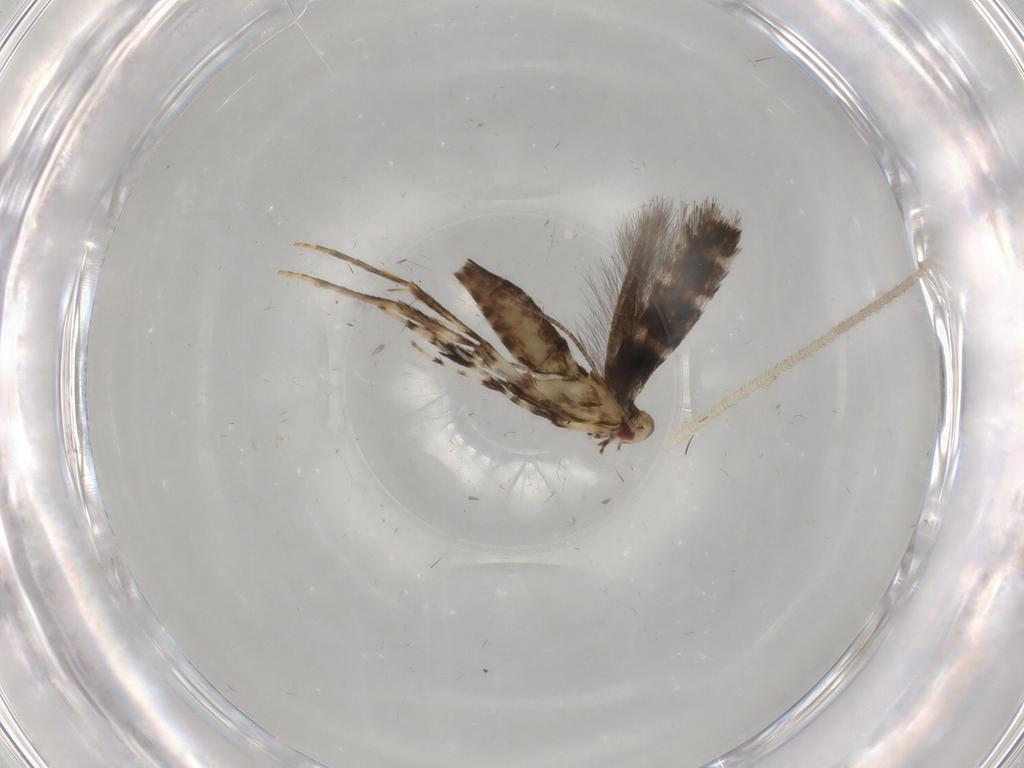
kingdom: Animalia
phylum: Arthropoda
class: Insecta
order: Lepidoptera
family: Gracillariidae
